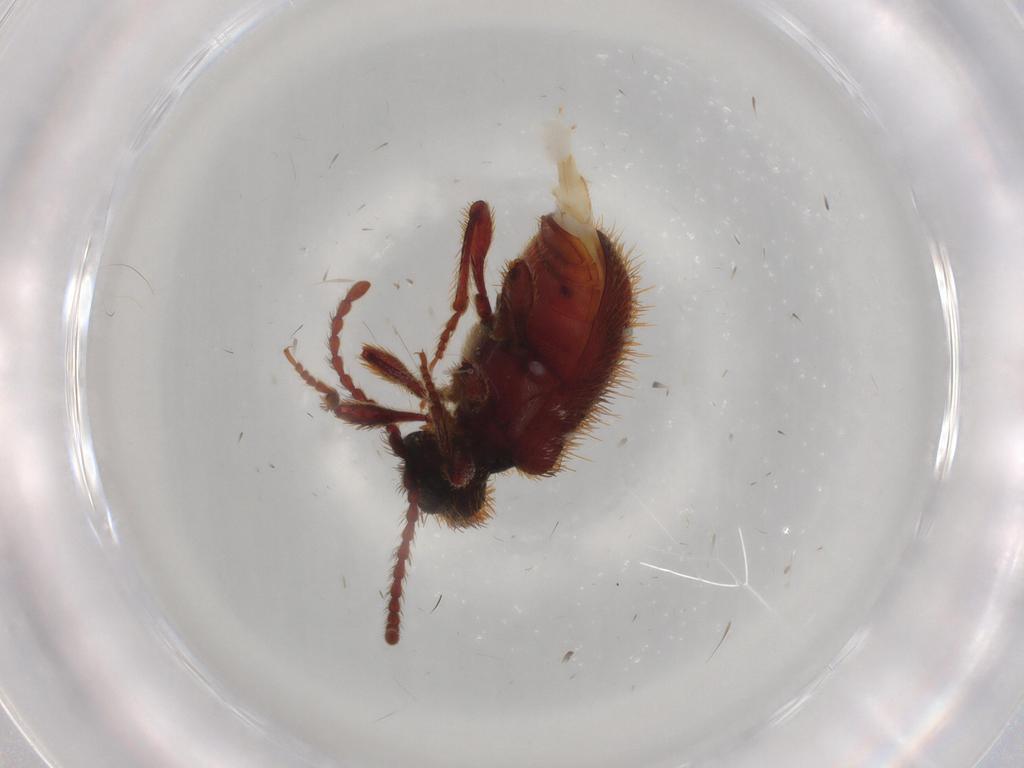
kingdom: Animalia
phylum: Arthropoda
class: Insecta
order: Coleoptera
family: Ptinidae
